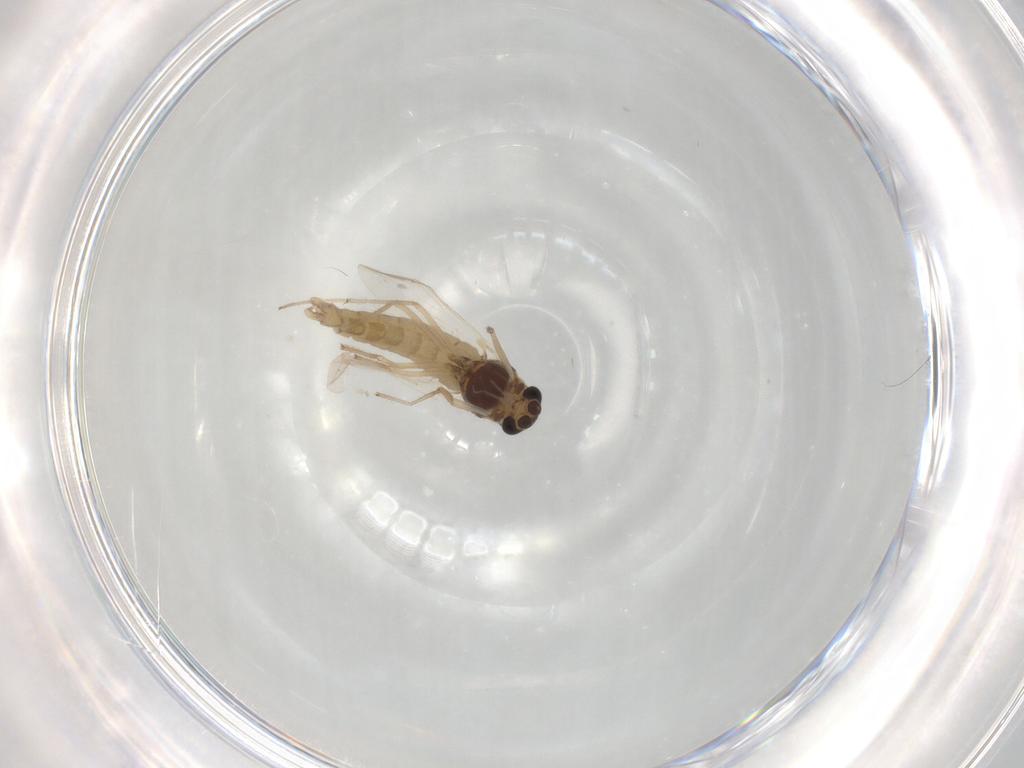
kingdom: Animalia
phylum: Arthropoda
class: Insecta
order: Diptera
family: Chironomidae
